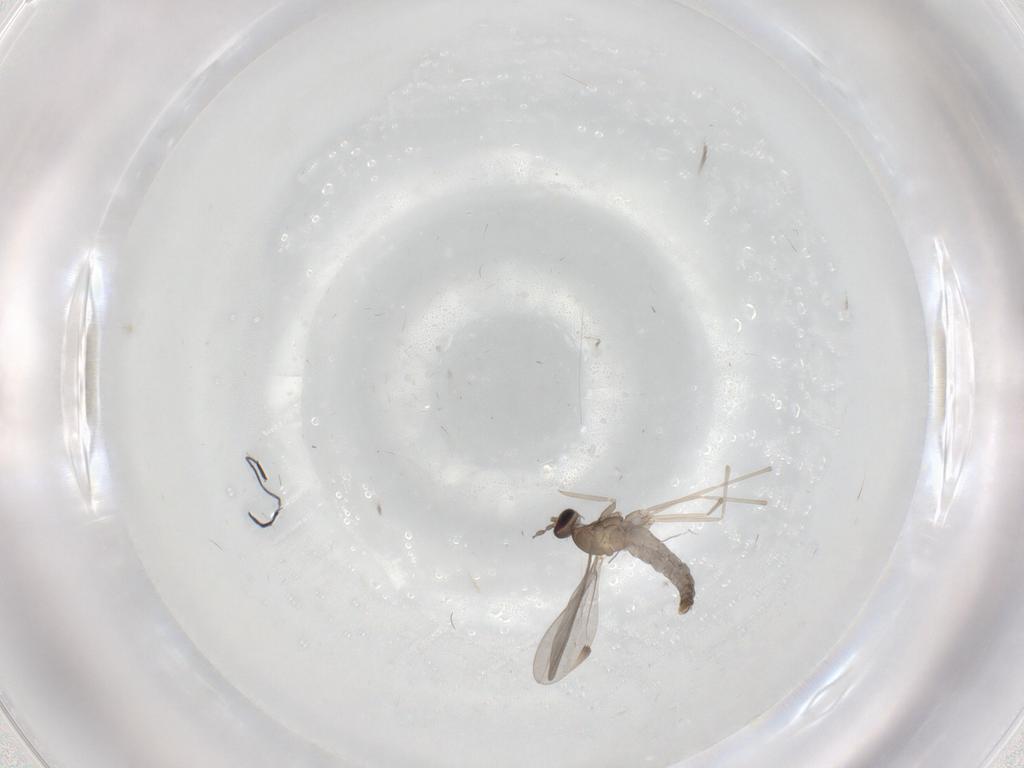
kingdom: Animalia
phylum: Arthropoda
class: Insecta
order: Diptera
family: Cecidomyiidae
